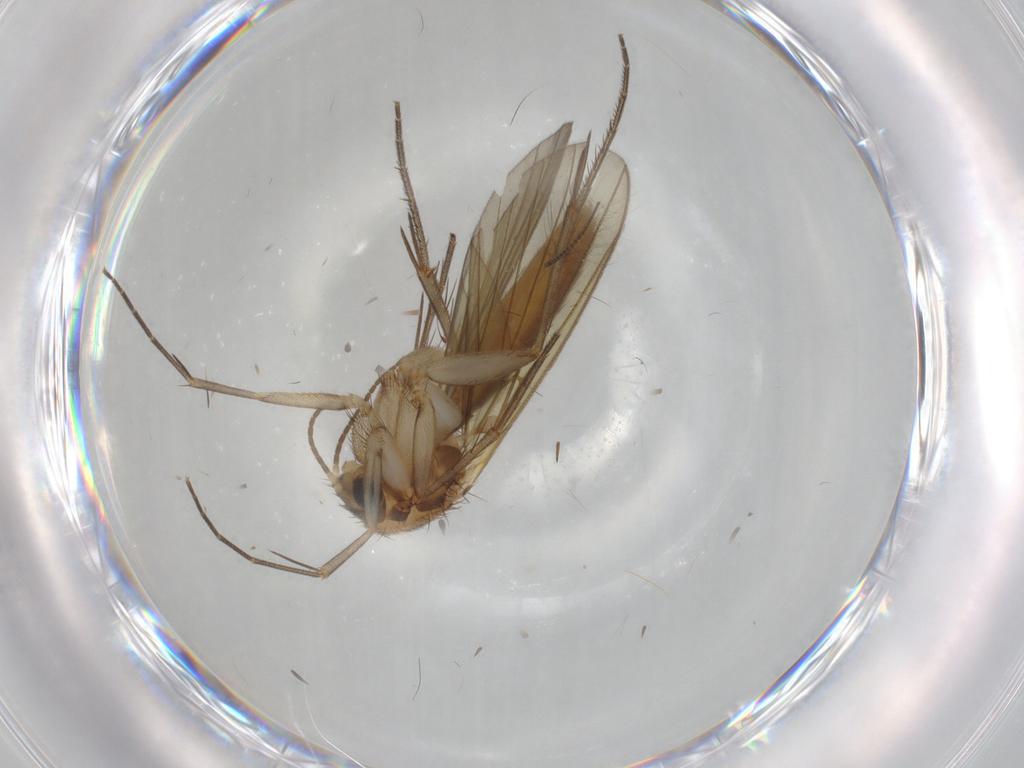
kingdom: Animalia
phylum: Arthropoda
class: Insecta
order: Diptera
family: Mycetophilidae
